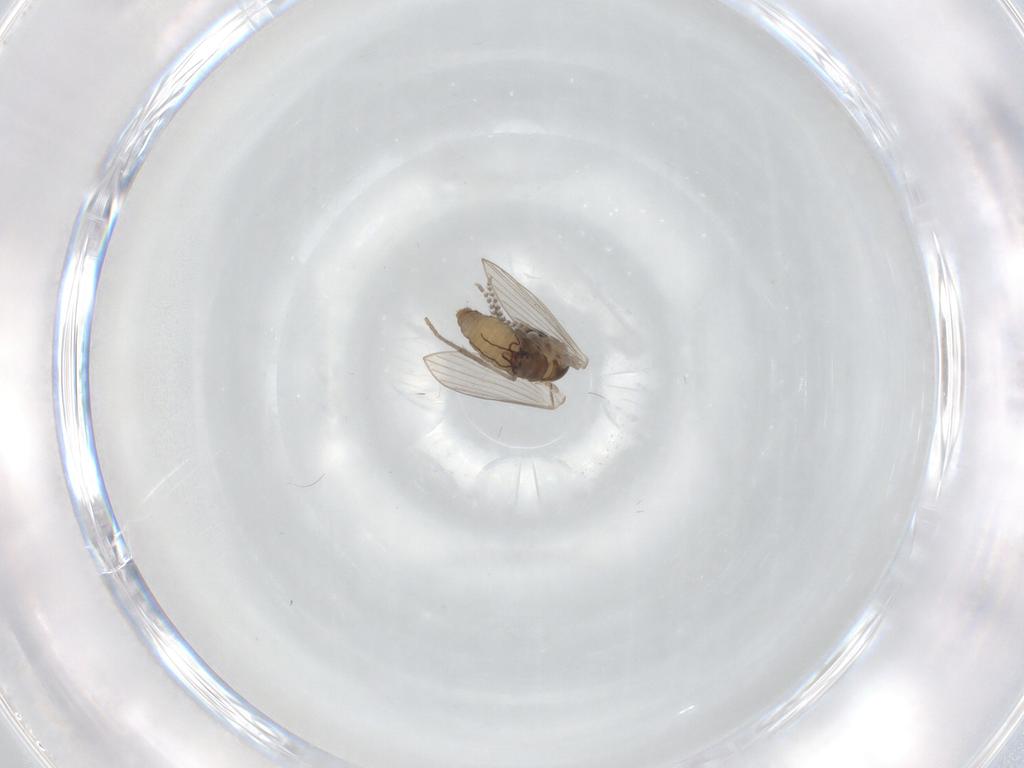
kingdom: Animalia
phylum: Arthropoda
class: Insecta
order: Diptera
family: Psychodidae
